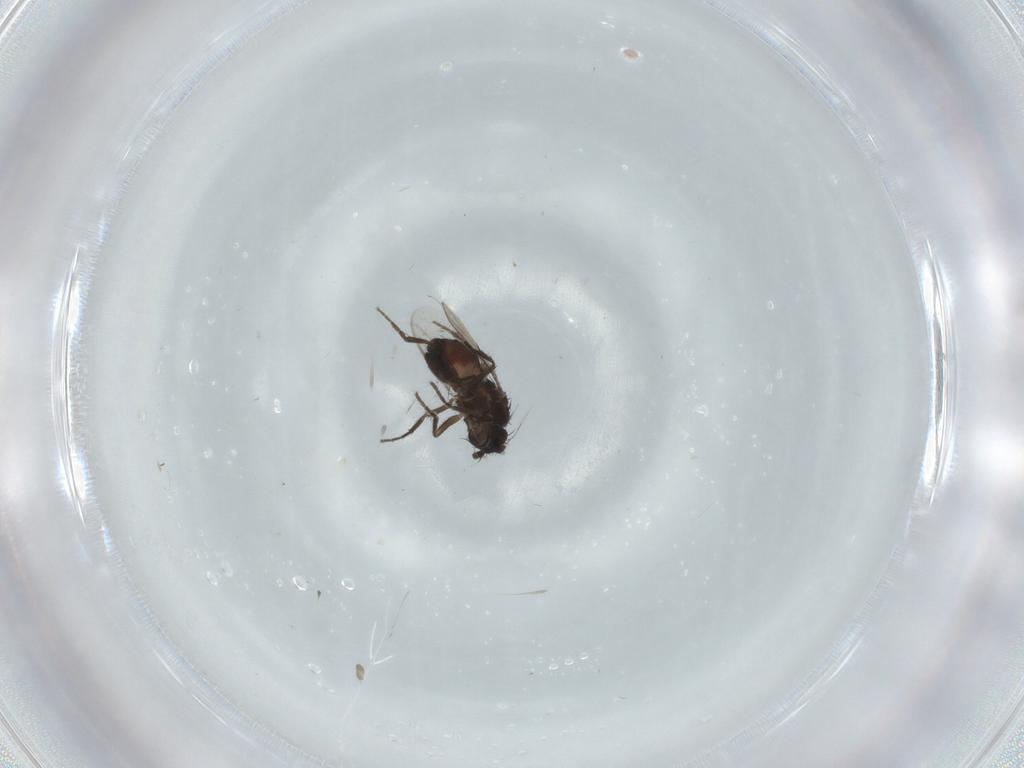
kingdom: Animalia
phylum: Arthropoda
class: Insecta
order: Diptera
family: Sphaeroceridae
